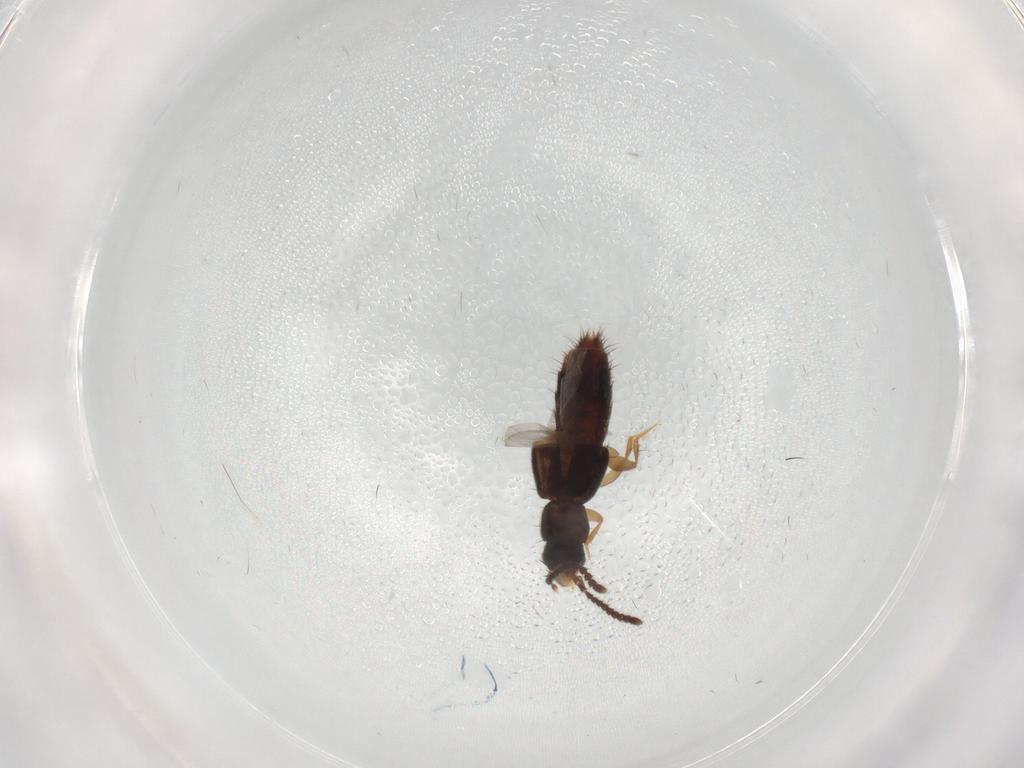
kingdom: Animalia
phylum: Arthropoda
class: Insecta
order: Coleoptera
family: Staphylinidae
